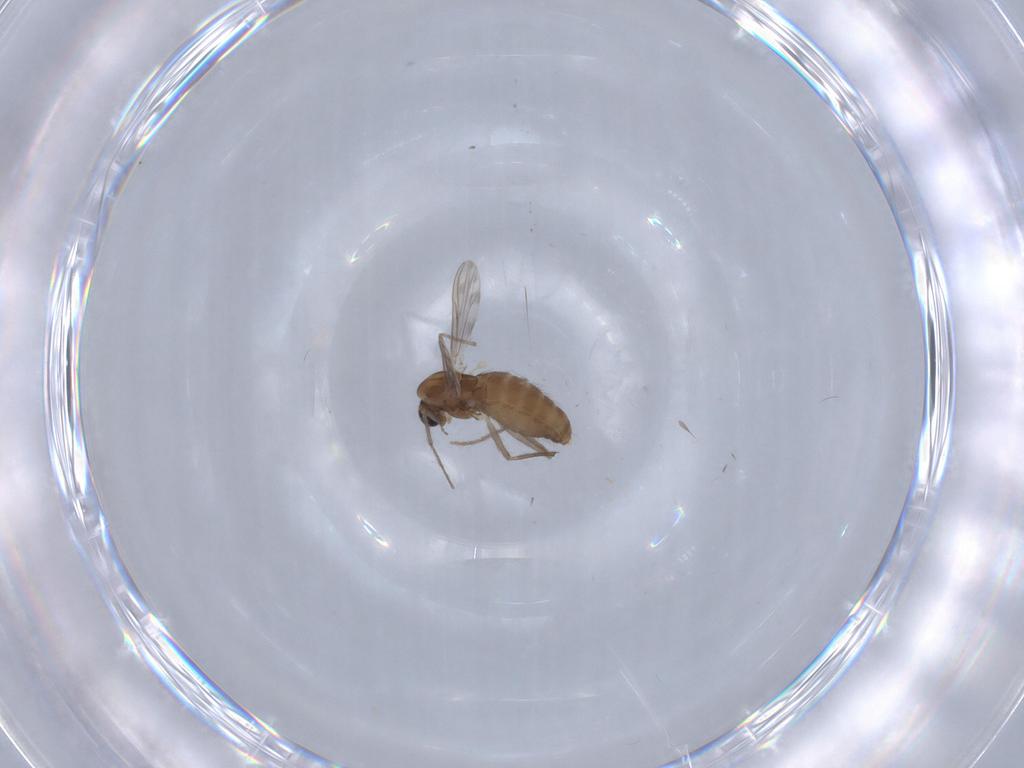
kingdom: Animalia
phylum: Arthropoda
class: Insecta
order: Diptera
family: Chironomidae
